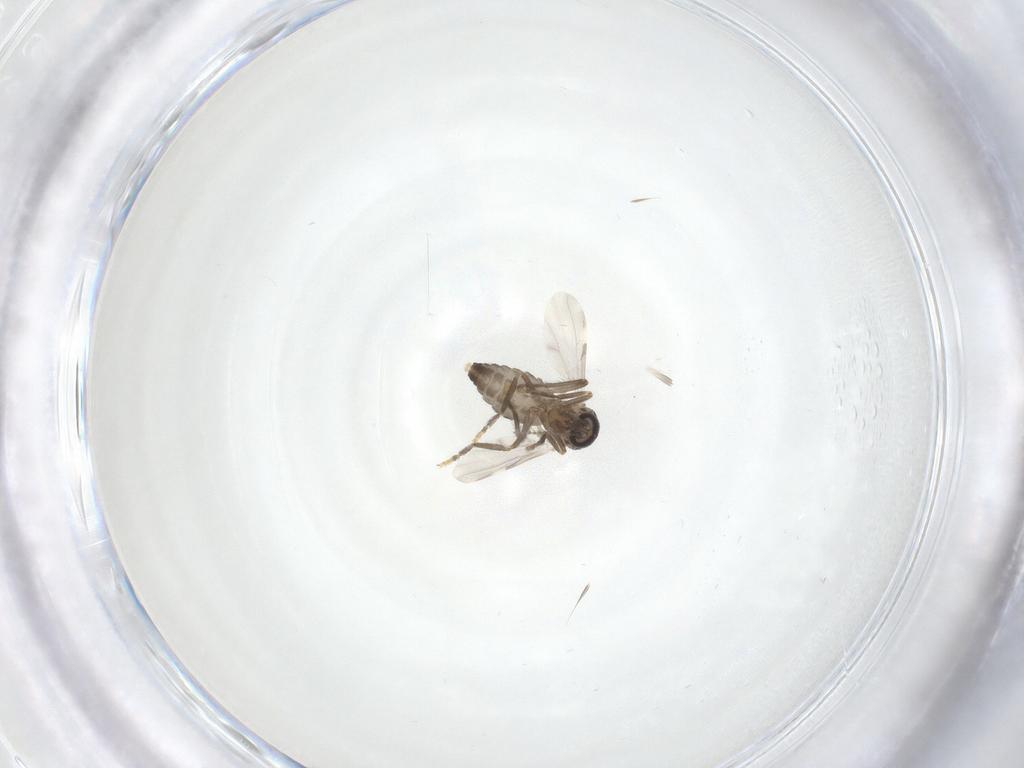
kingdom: Animalia
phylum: Arthropoda
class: Insecta
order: Diptera
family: Ceratopogonidae
